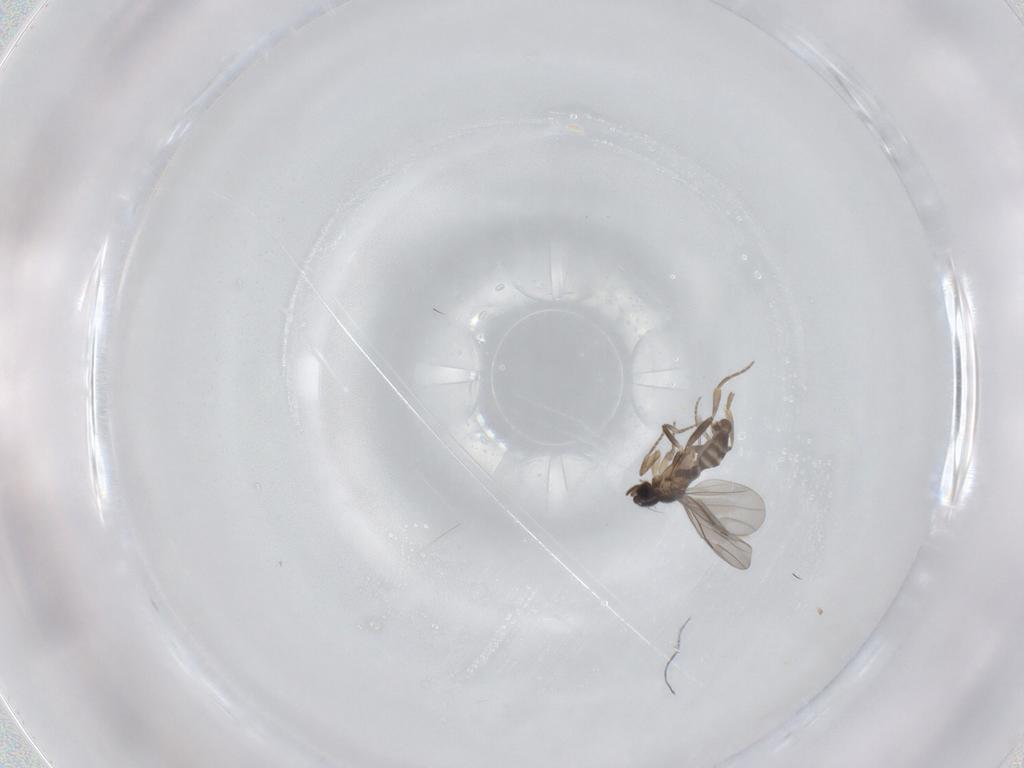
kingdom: Animalia
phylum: Arthropoda
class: Insecta
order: Diptera
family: Tabanidae
